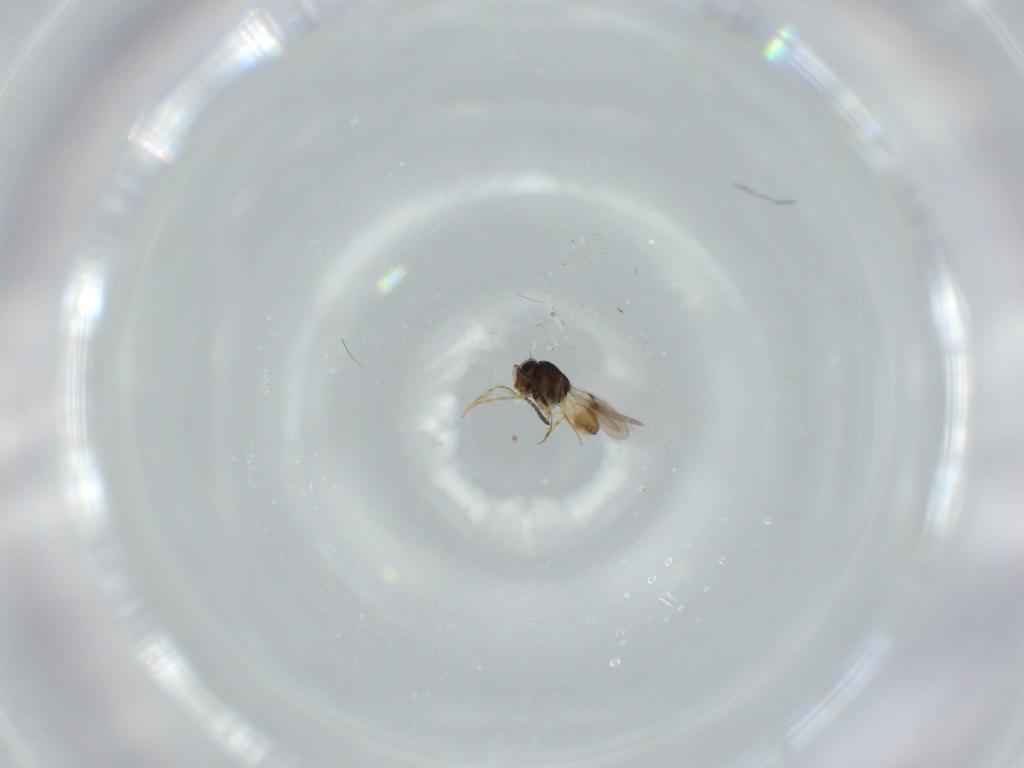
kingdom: Animalia
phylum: Arthropoda
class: Insecta
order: Hymenoptera
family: Scelionidae
